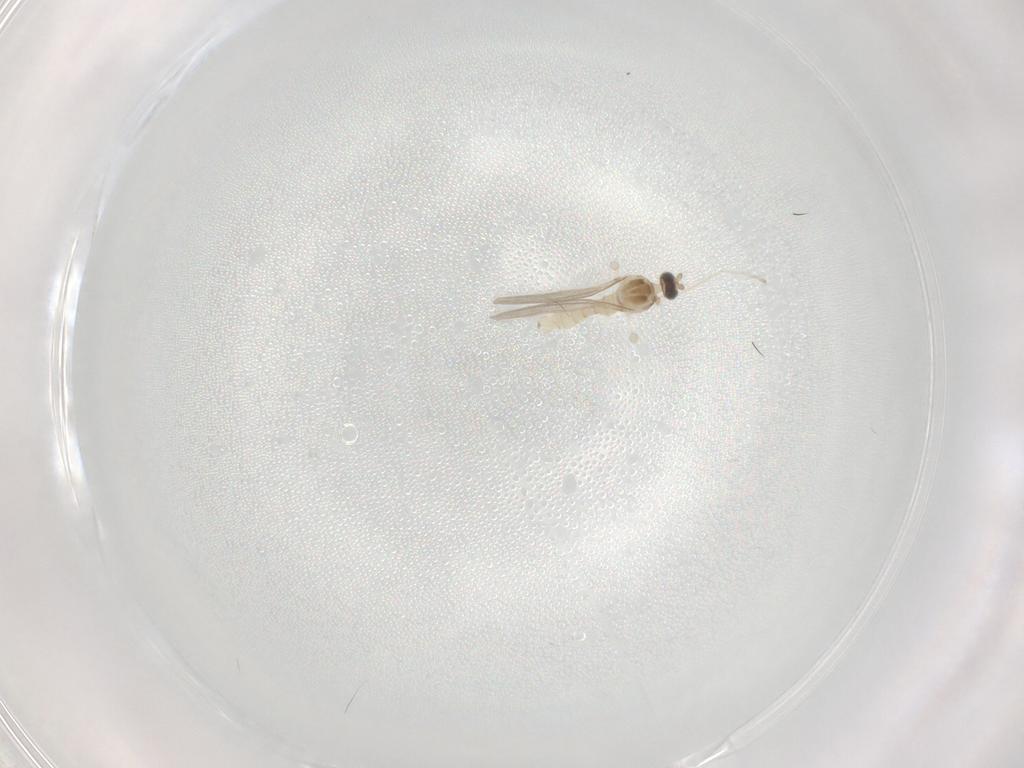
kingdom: Animalia
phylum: Arthropoda
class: Insecta
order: Diptera
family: Cecidomyiidae
